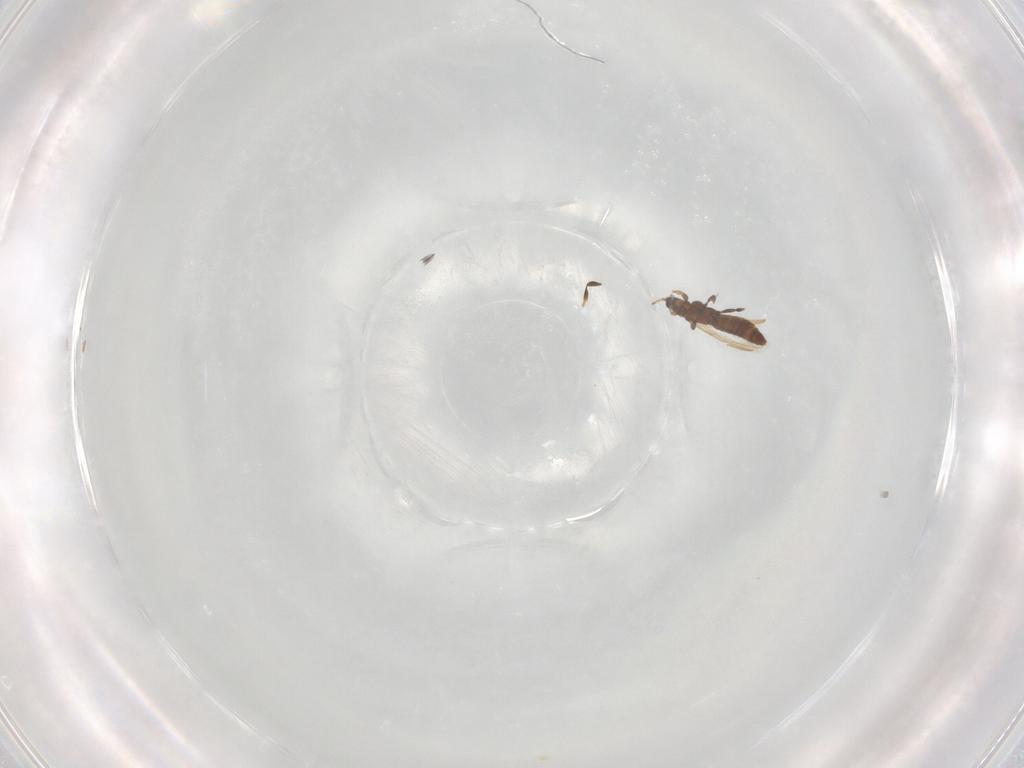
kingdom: Animalia
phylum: Arthropoda
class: Insecta
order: Thysanoptera
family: Thripidae
